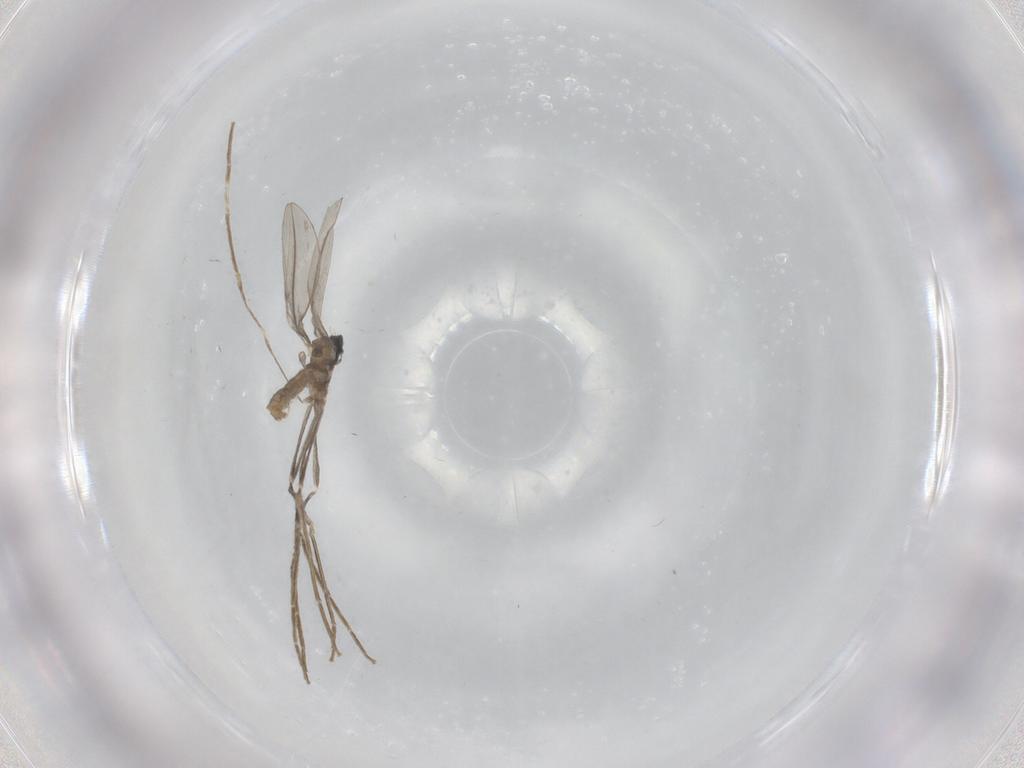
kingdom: Animalia
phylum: Arthropoda
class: Insecta
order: Diptera
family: Cecidomyiidae
